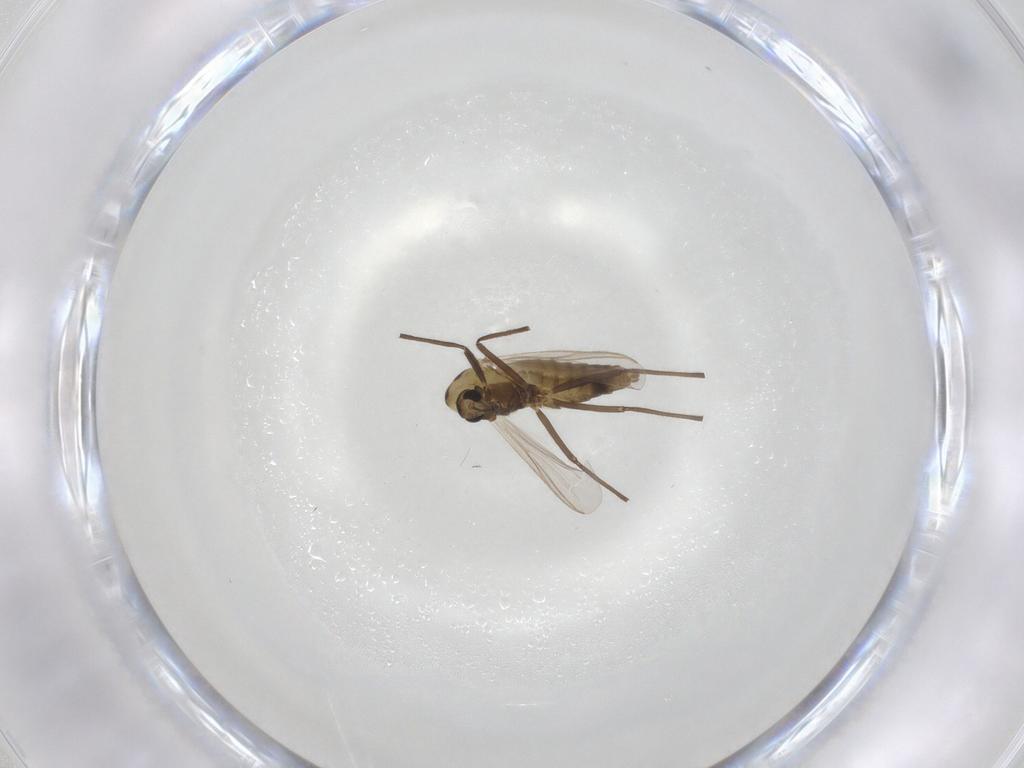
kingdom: Animalia
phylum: Arthropoda
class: Insecta
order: Diptera
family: Chironomidae
